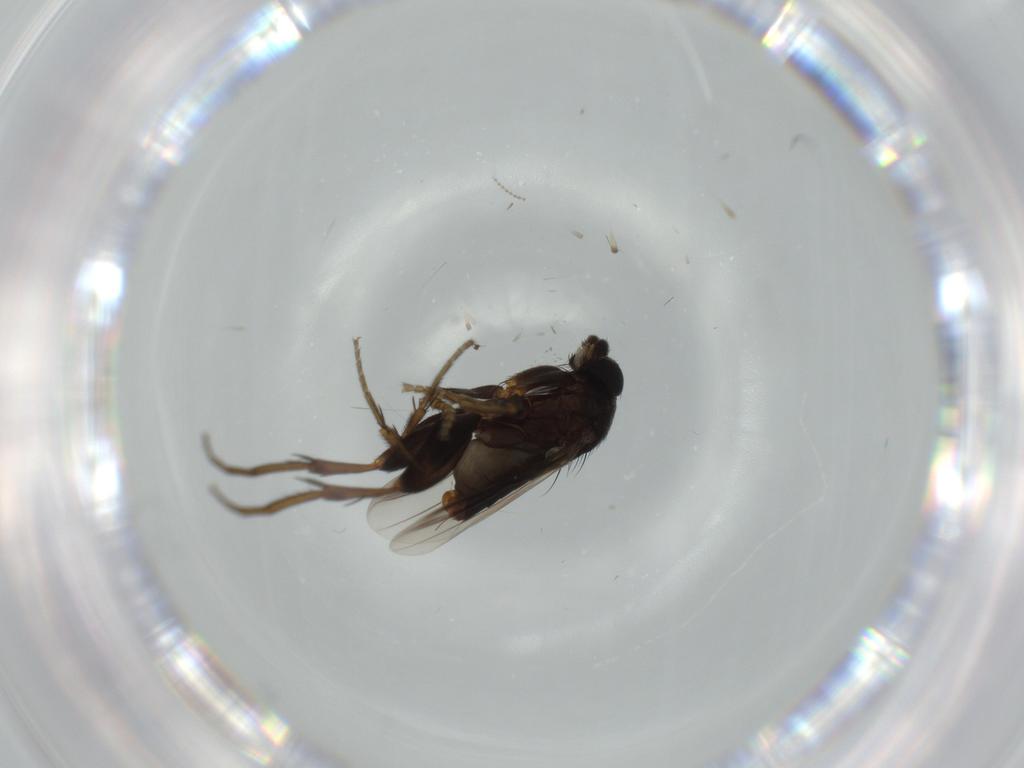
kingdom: Animalia
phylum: Arthropoda
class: Insecta
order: Diptera
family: Phoridae
